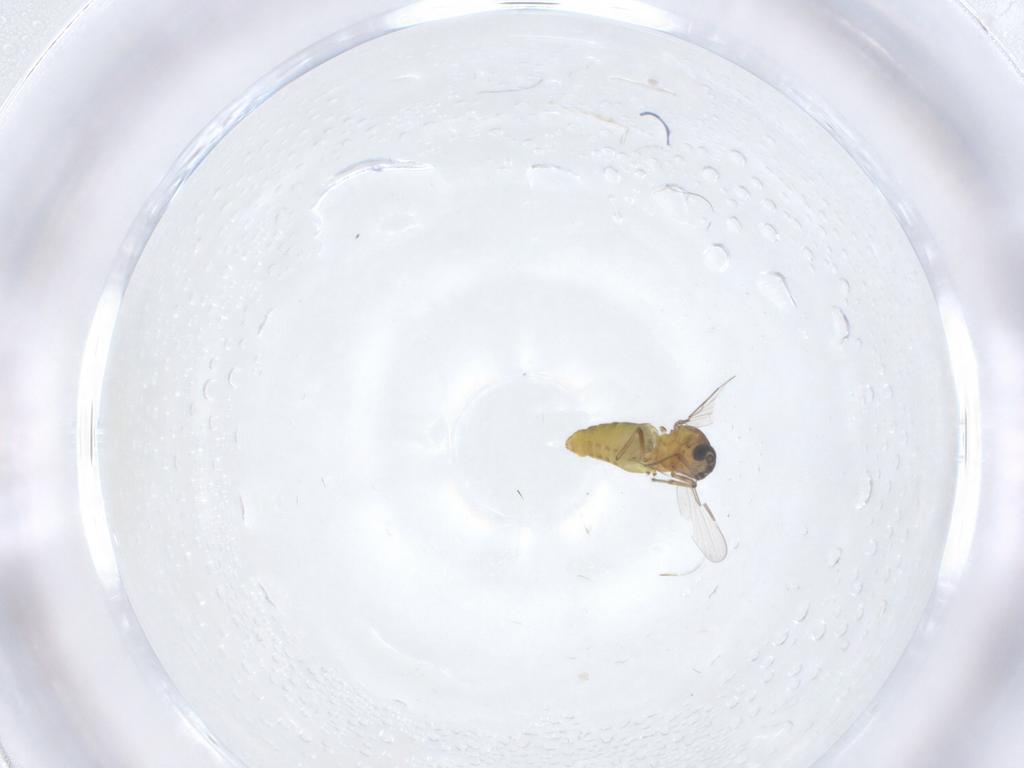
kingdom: Animalia
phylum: Arthropoda
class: Insecta
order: Diptera
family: Ceratopogonidae
